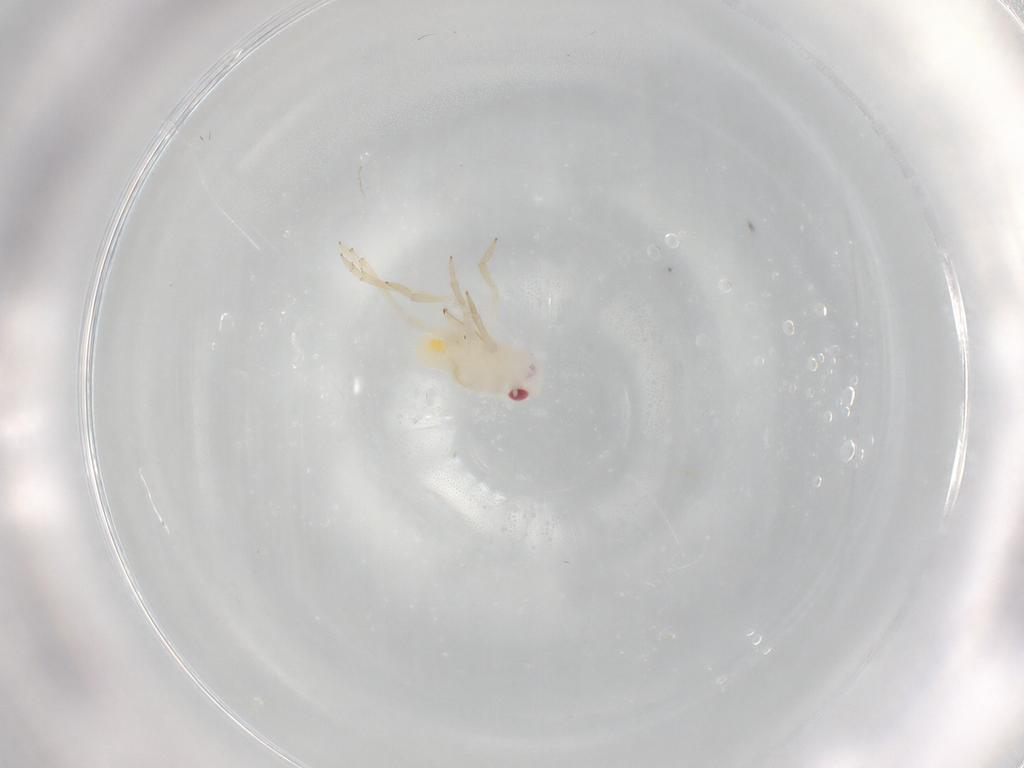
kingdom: Animalia
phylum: Arthropoda
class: Insecta
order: Hemiptera
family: Tropiduchidae
